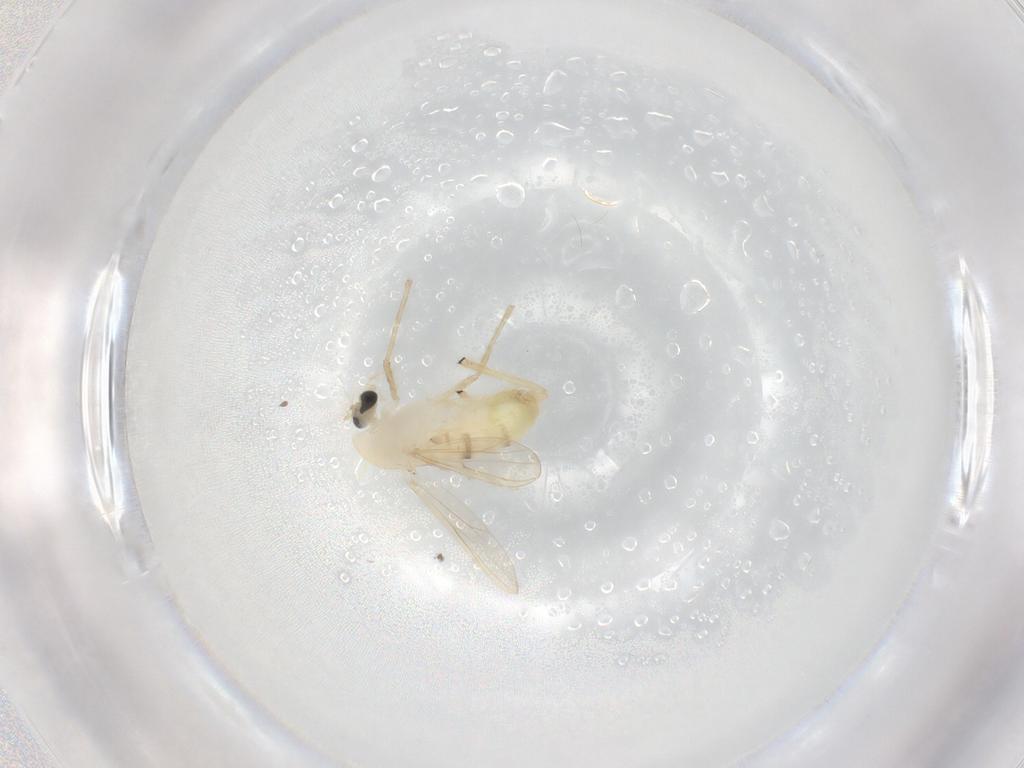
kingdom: Animalia
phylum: Arthropoda
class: Insecta
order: Diptera
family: Chironomidae
